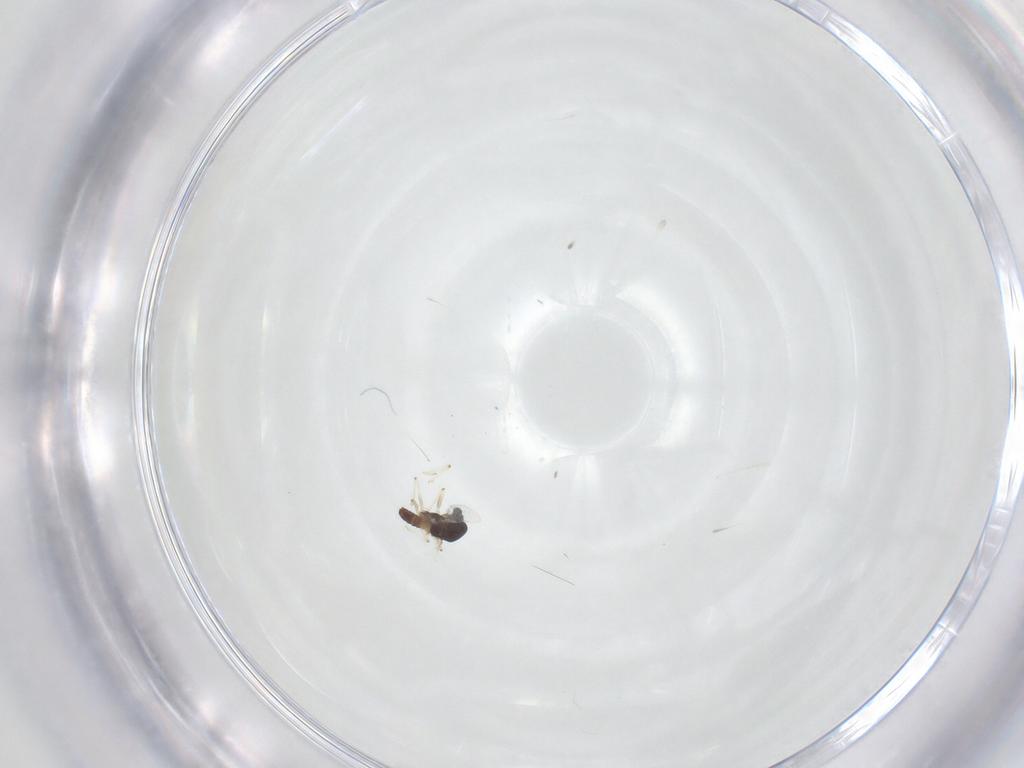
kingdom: Animalia
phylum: Arthropoda
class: Insecta
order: Diptera
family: Chironomidae
